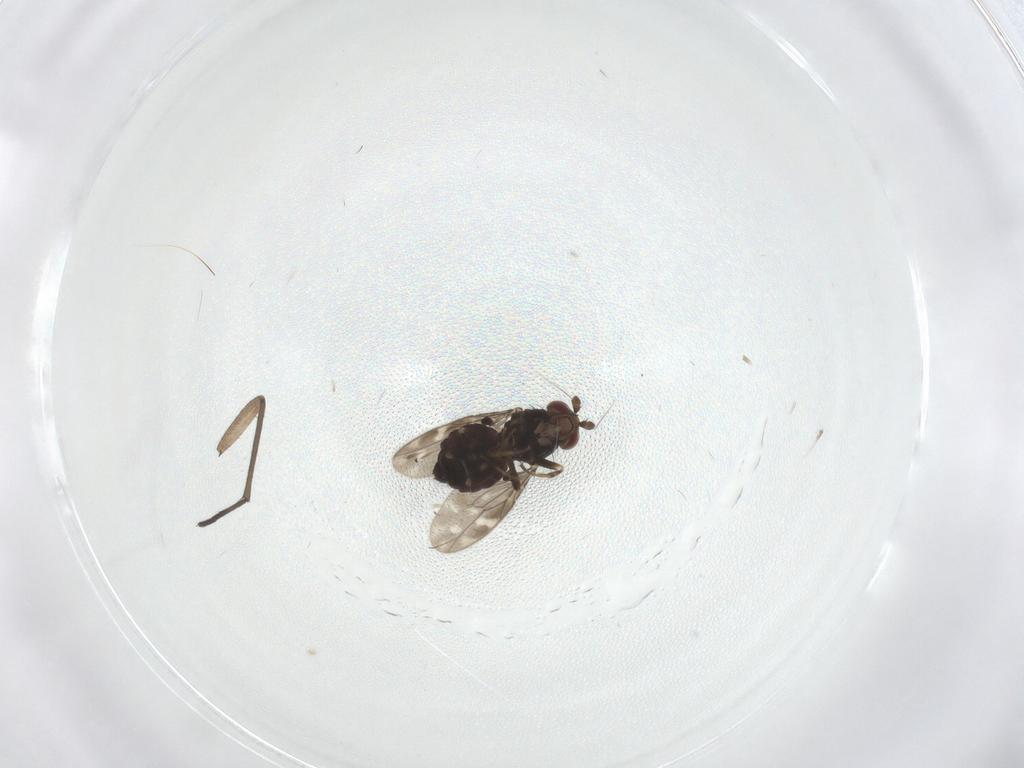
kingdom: Animalia
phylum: Arthropoda
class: Insecta
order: Diptera
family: Sphaeroceridae
